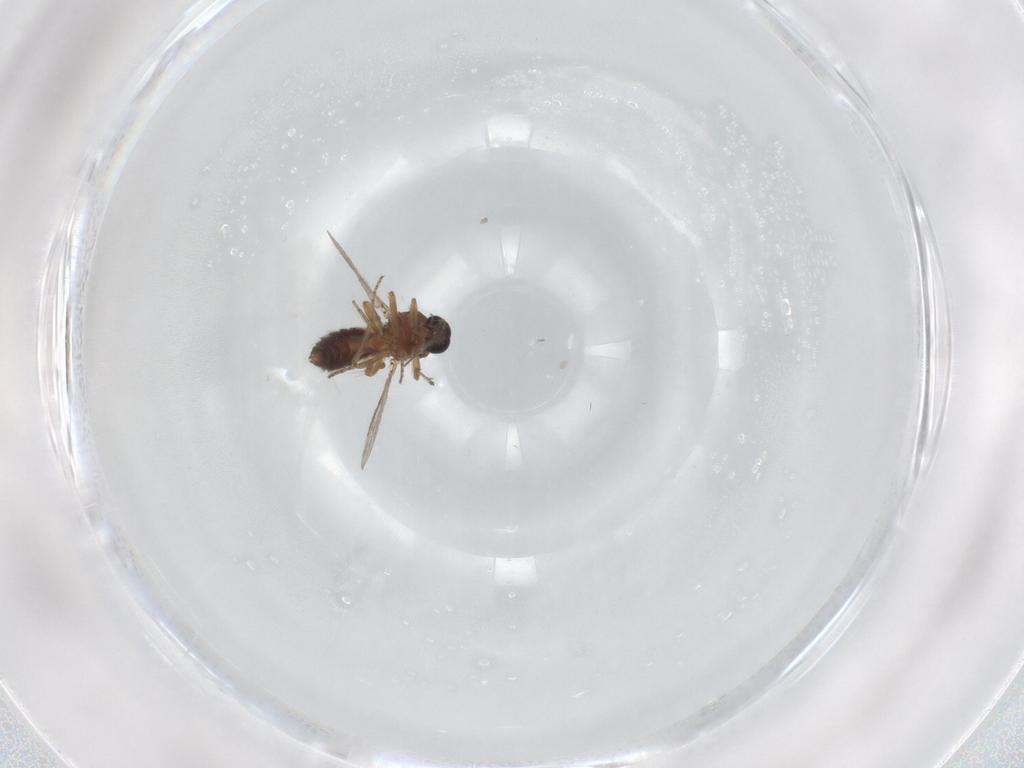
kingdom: Animalia
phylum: Arthropoda
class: Insecta
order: Diptera
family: Ceratopogonidae
